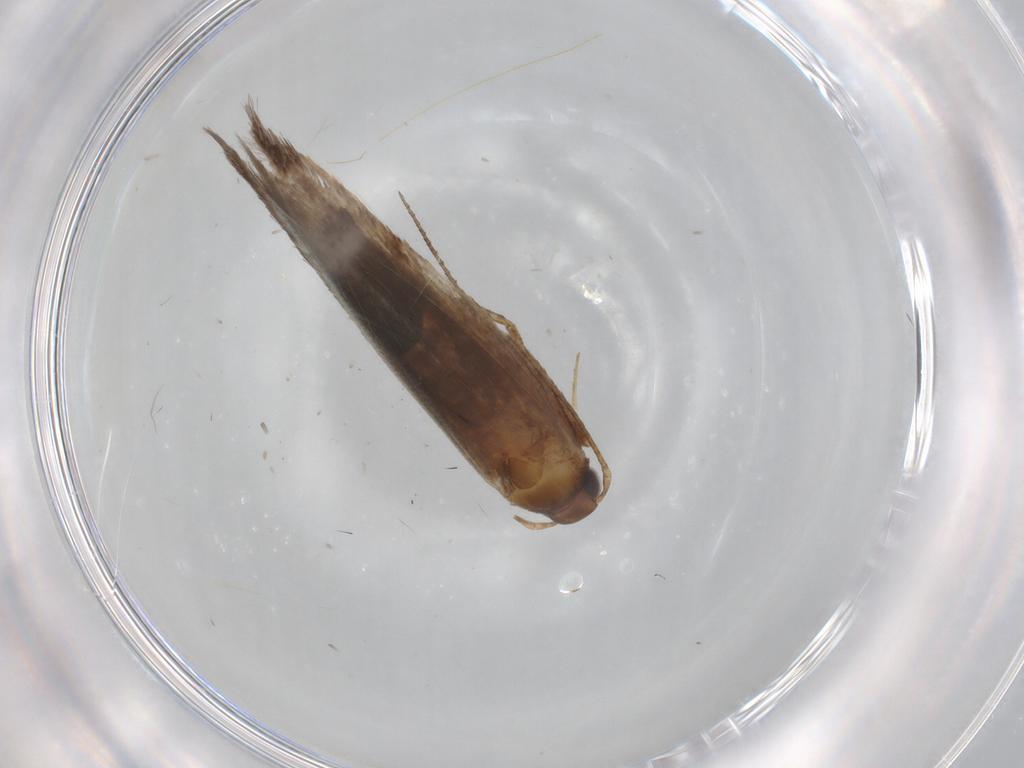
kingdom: Animalia
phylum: Arthropoda
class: Insecta
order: Lepidoptera
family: Gelechiidae
